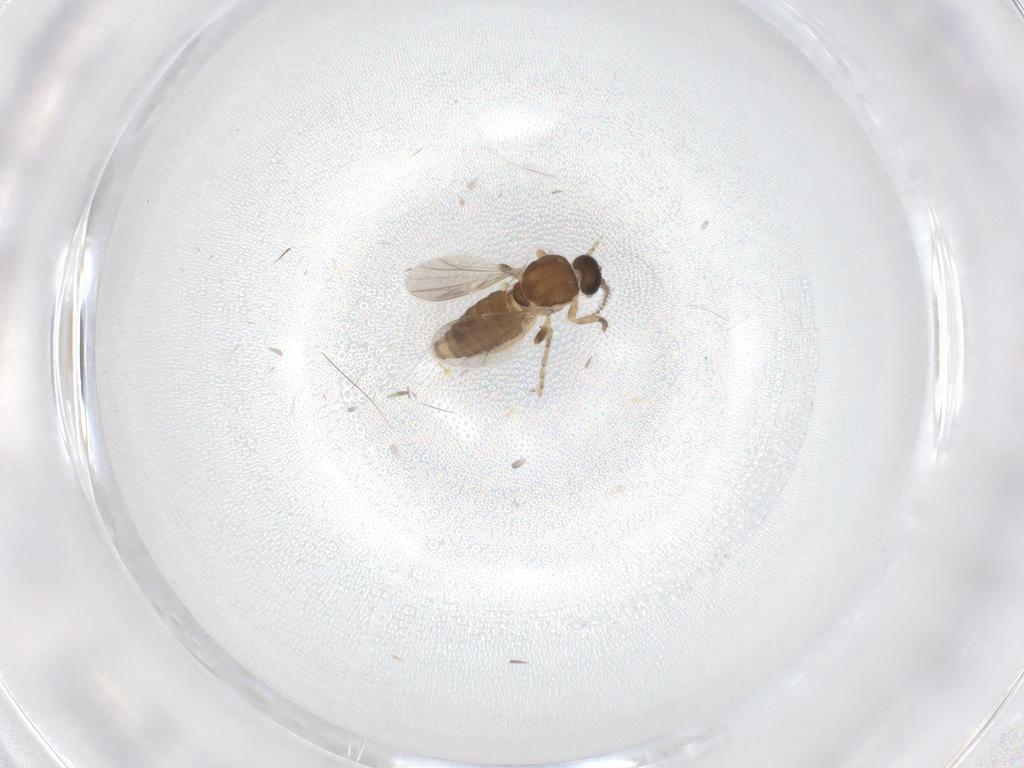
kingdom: Animalia
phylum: Arthropoda
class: Insecta
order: Diptera
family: Ceratopogonidae
